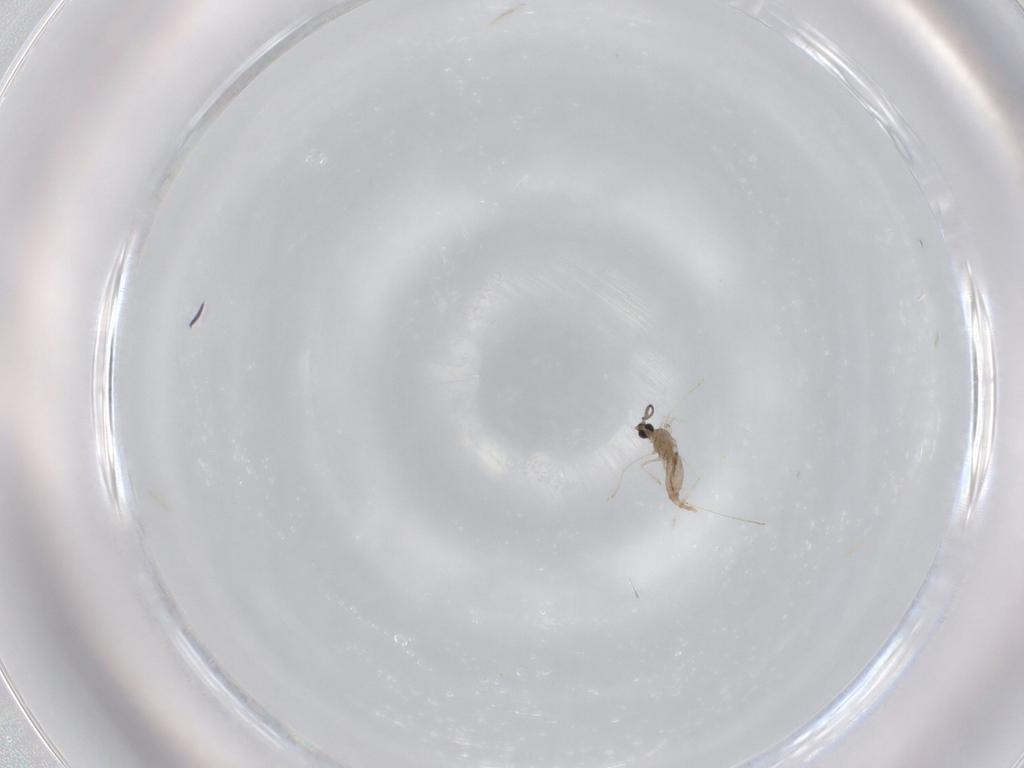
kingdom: Animalia
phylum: Arthropoda
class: Insecta
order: Diptera
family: Cecidomyiidae
